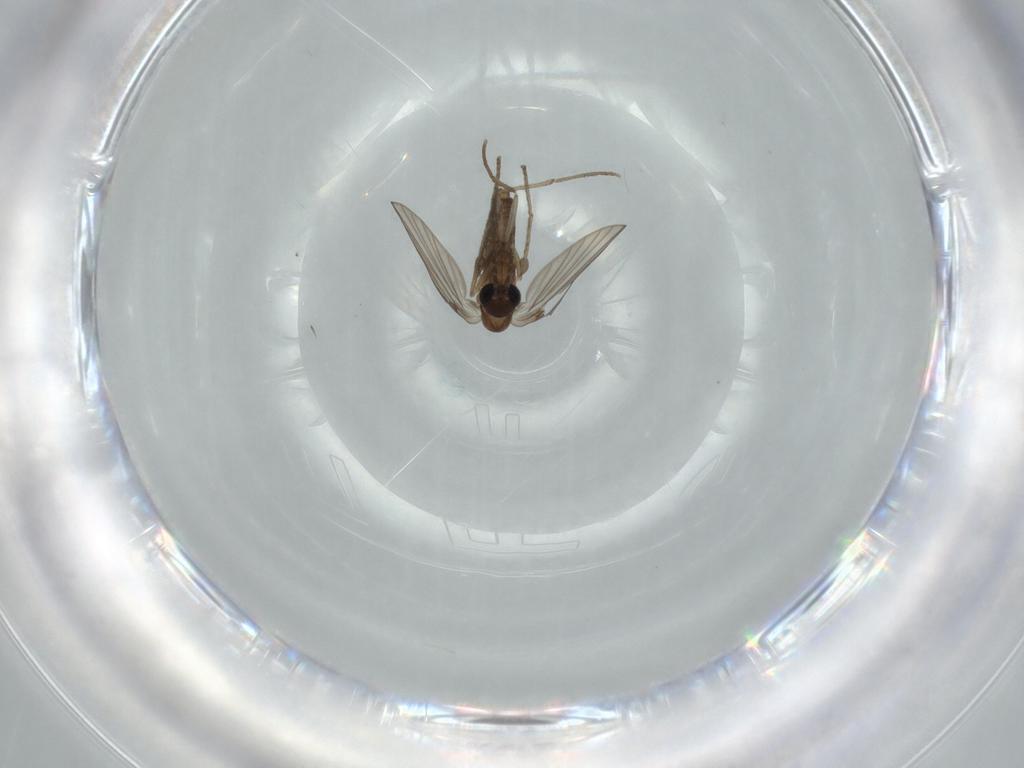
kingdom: Animalia
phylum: Arthropoda
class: Insecta
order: Diptera
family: Psychodidae
